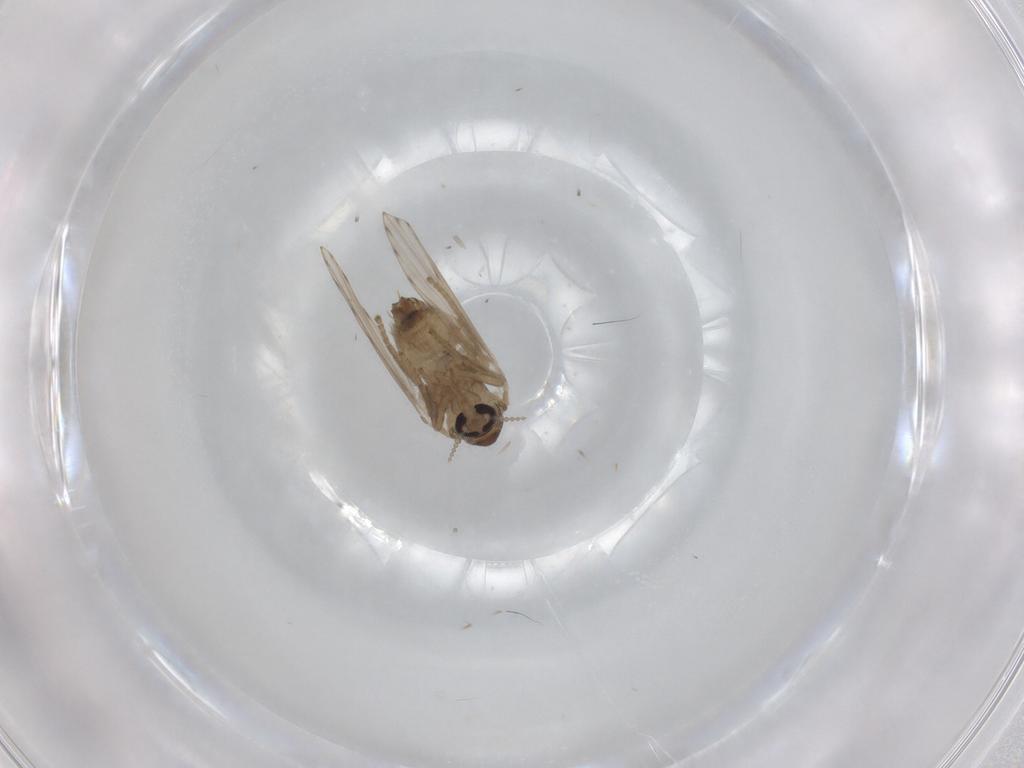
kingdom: Animalia
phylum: Arthropoda
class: Insecta
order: Diptera
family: Psychodidae
